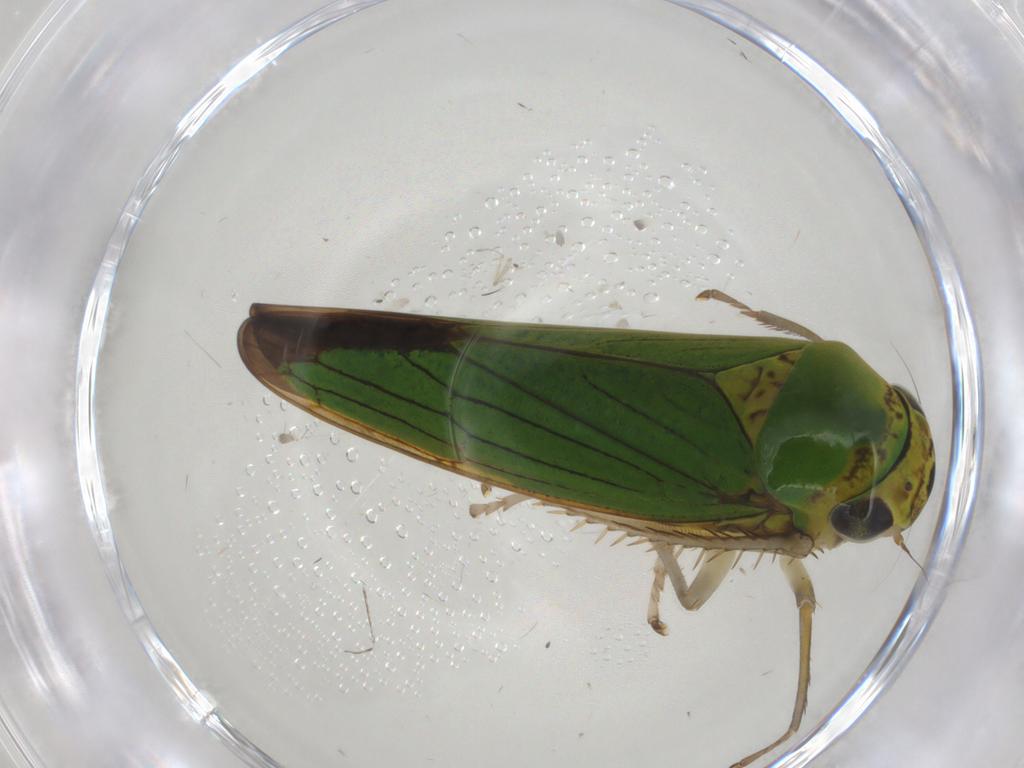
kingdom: Animalia
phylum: Arthropoda
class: Insecta
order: Hemiptera
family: Cicadellidae
